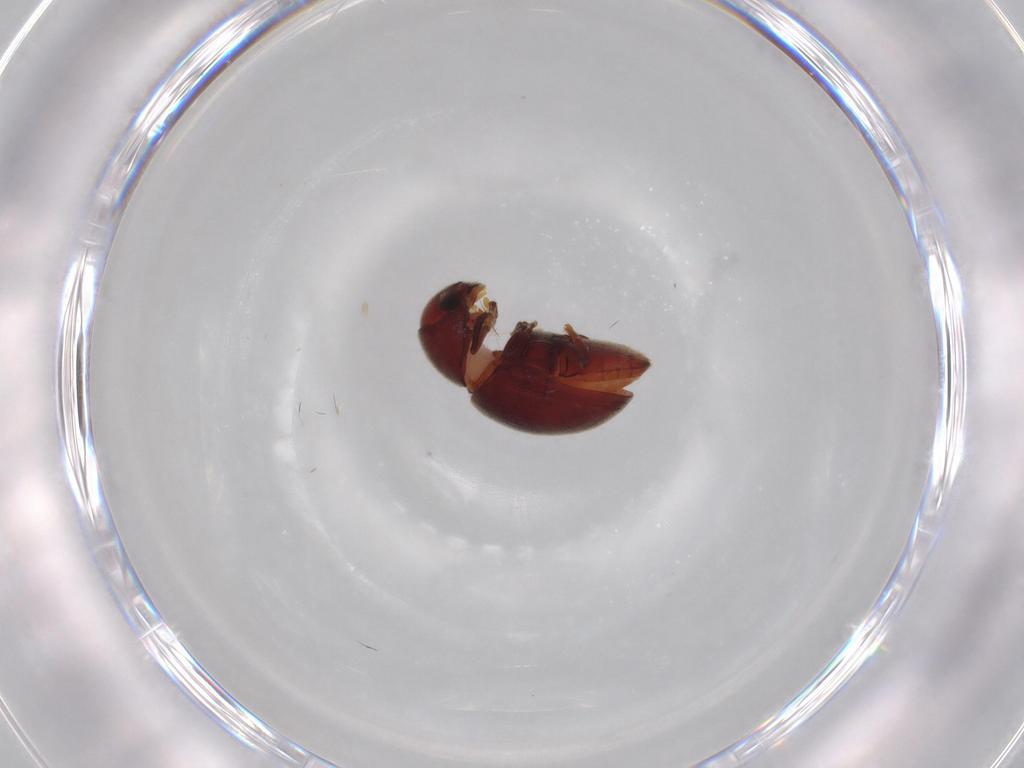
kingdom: Animalia
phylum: Arthropoda
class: Insecta
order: Coleoptera
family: Ptinidae
